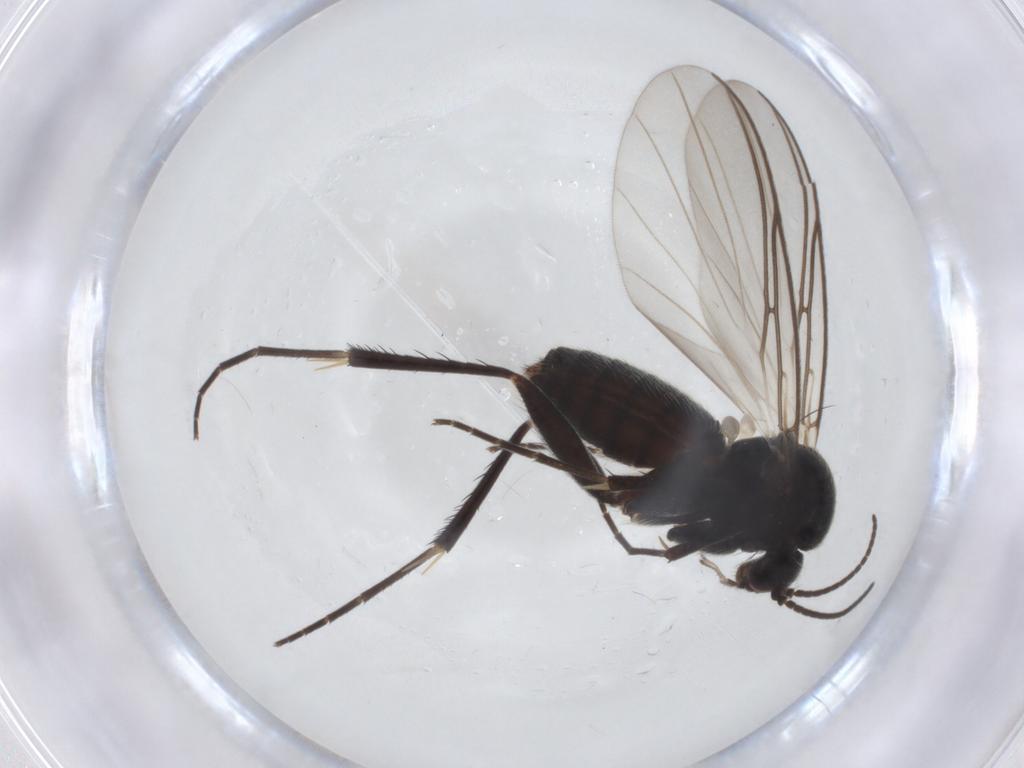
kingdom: Animalia
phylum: Arthropoda
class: Insecta
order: Diptera
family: Mycetophilidae
